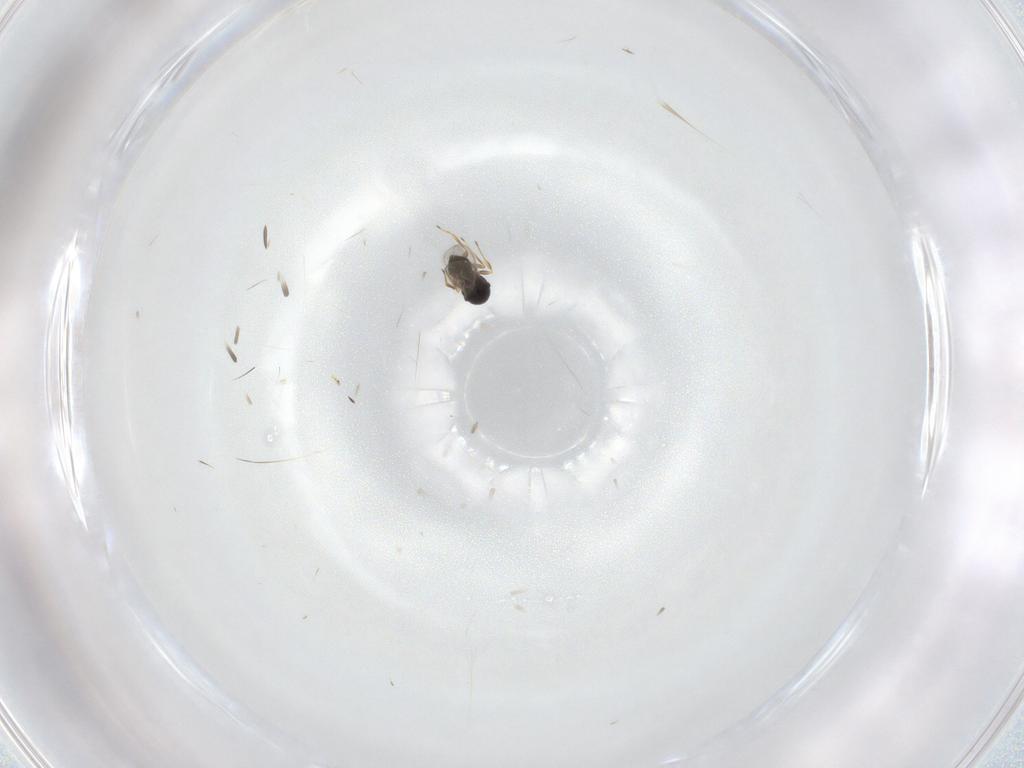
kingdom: Animalia
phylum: Arthropoda
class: Insecta
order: Hymenoptera
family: Scelionidae
